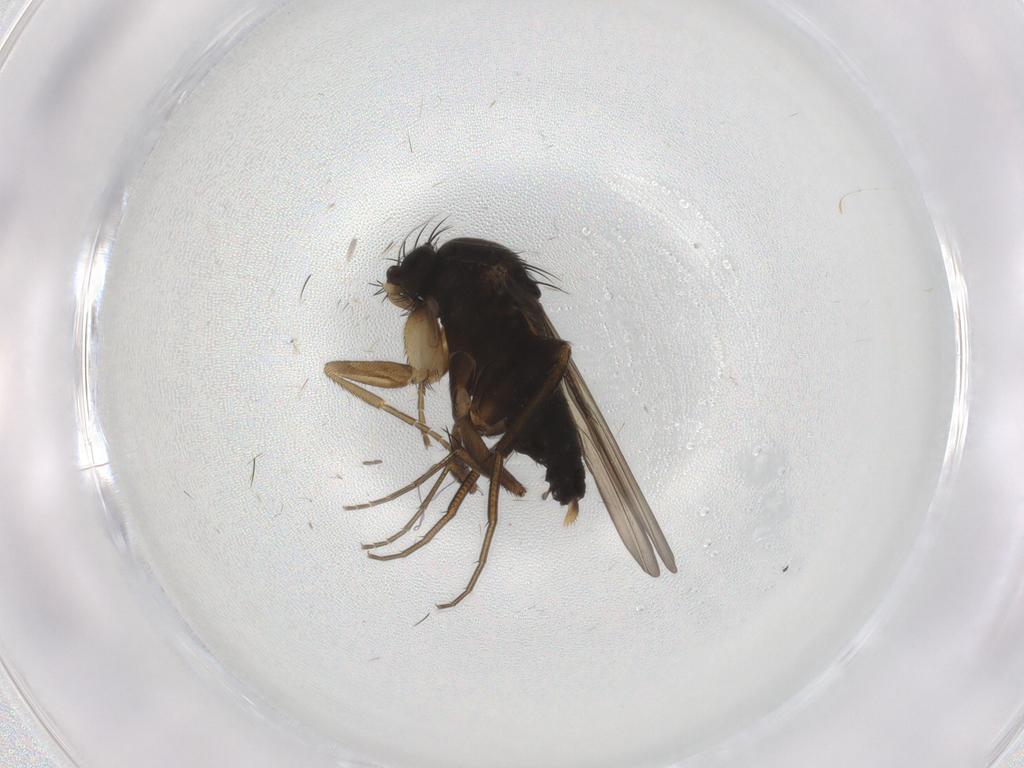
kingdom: Animalia
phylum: Arthropoda
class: Insecta
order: Diptera
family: Phoridae
